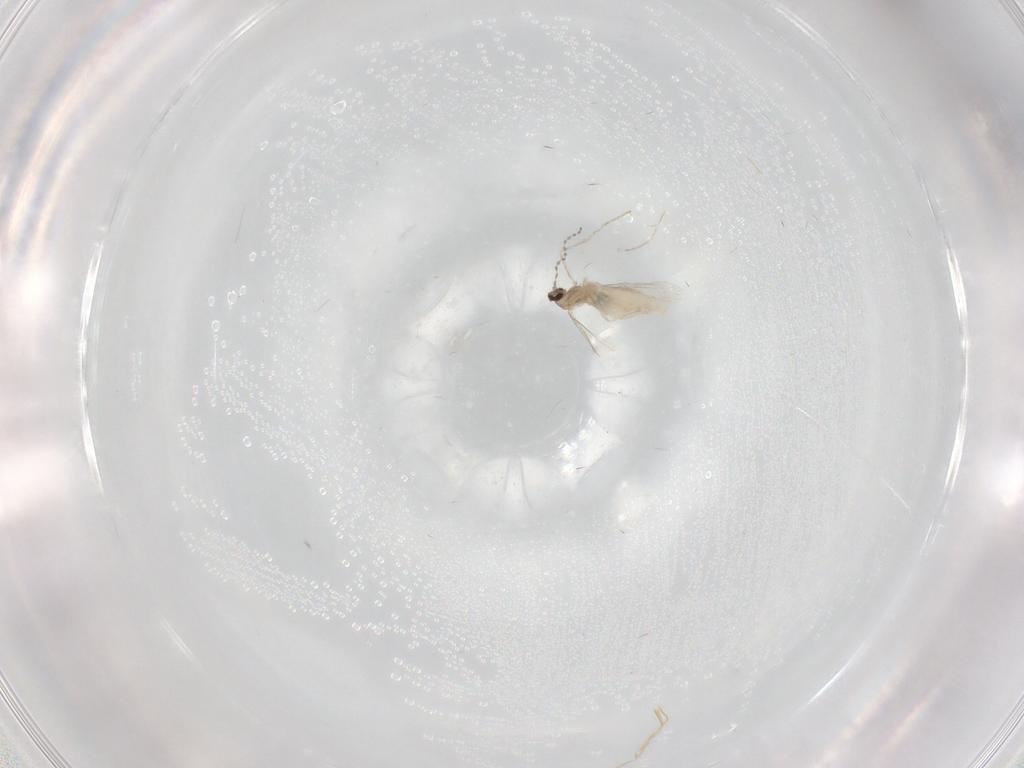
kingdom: Animalia
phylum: Arthropoda
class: Insecta
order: Diptera
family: Cecidomyiidae
